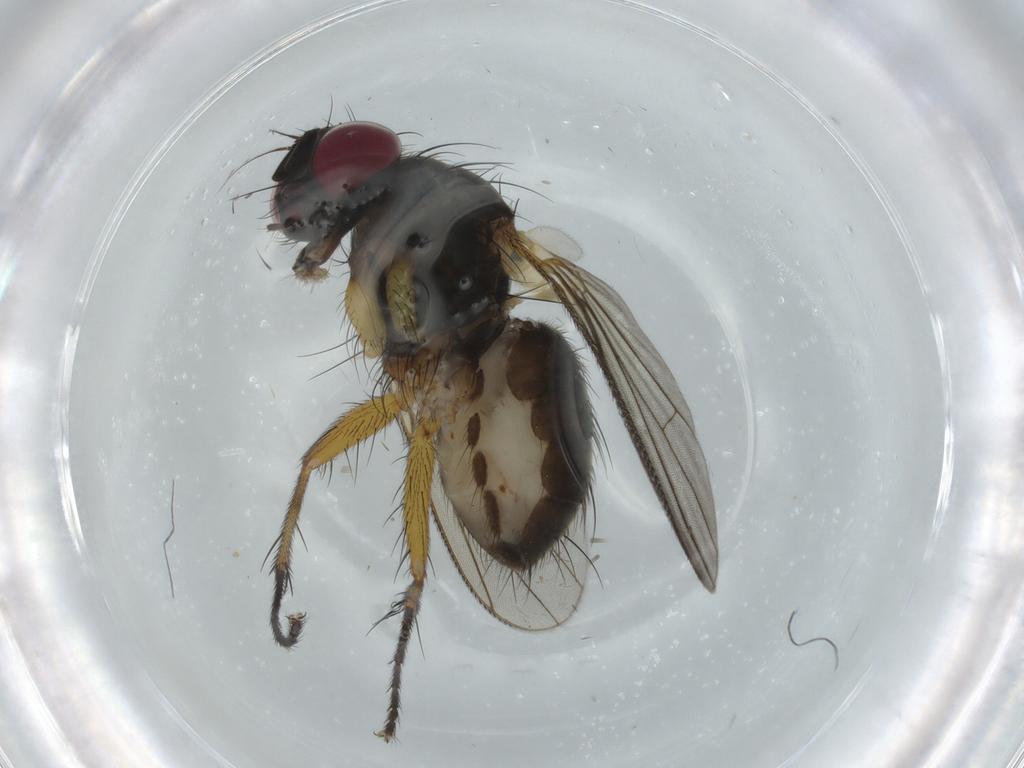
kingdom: Animalia
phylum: Arthropoda
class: Insecta
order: Diptera
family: Muscidae
